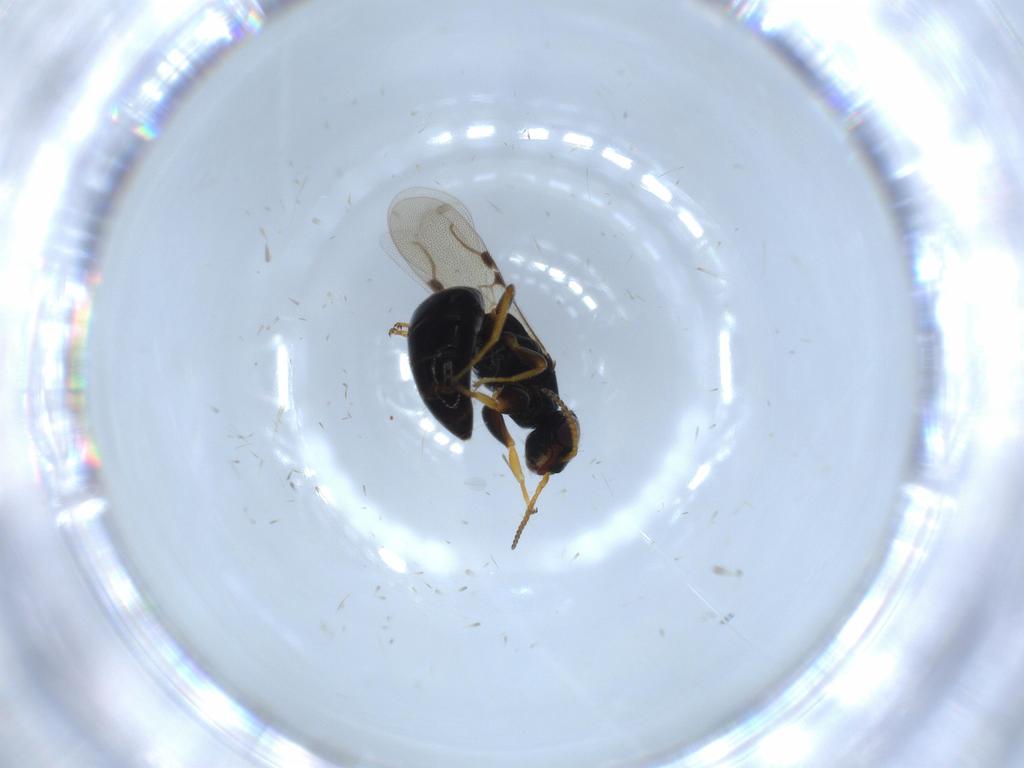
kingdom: Animalia
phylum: Arthropoda
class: Insecta
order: Hymenoptera
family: Bethylidae
